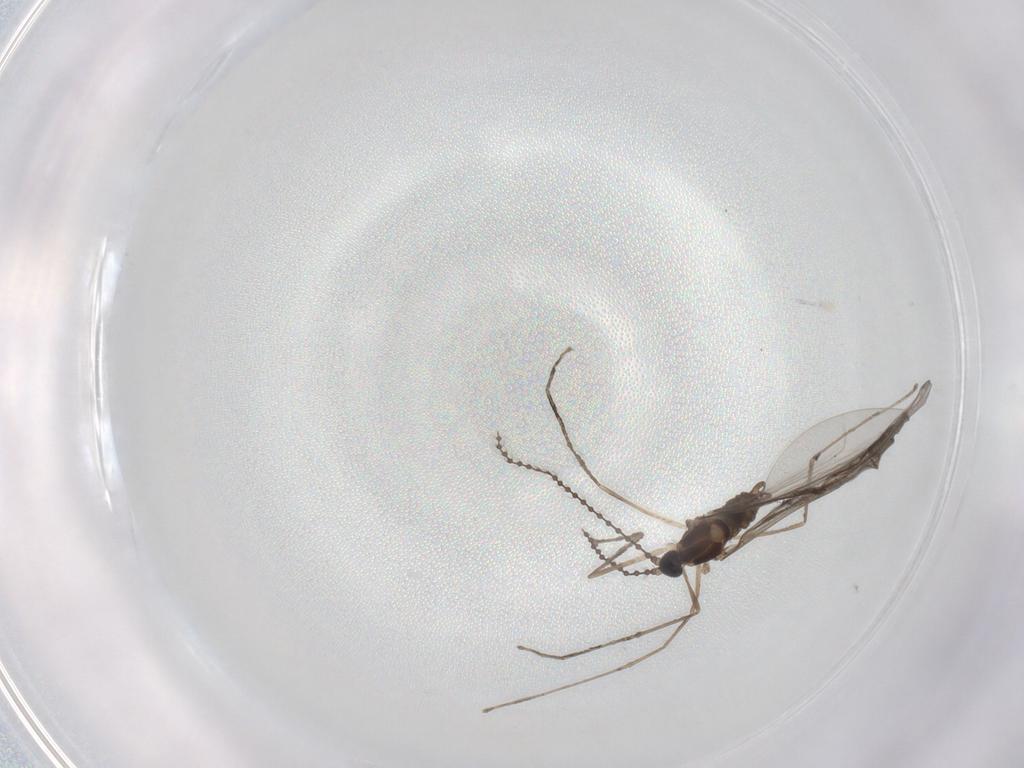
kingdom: Animalia
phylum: Arthropoda
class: Insecta
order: Diptera
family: Cecidomyiidae
